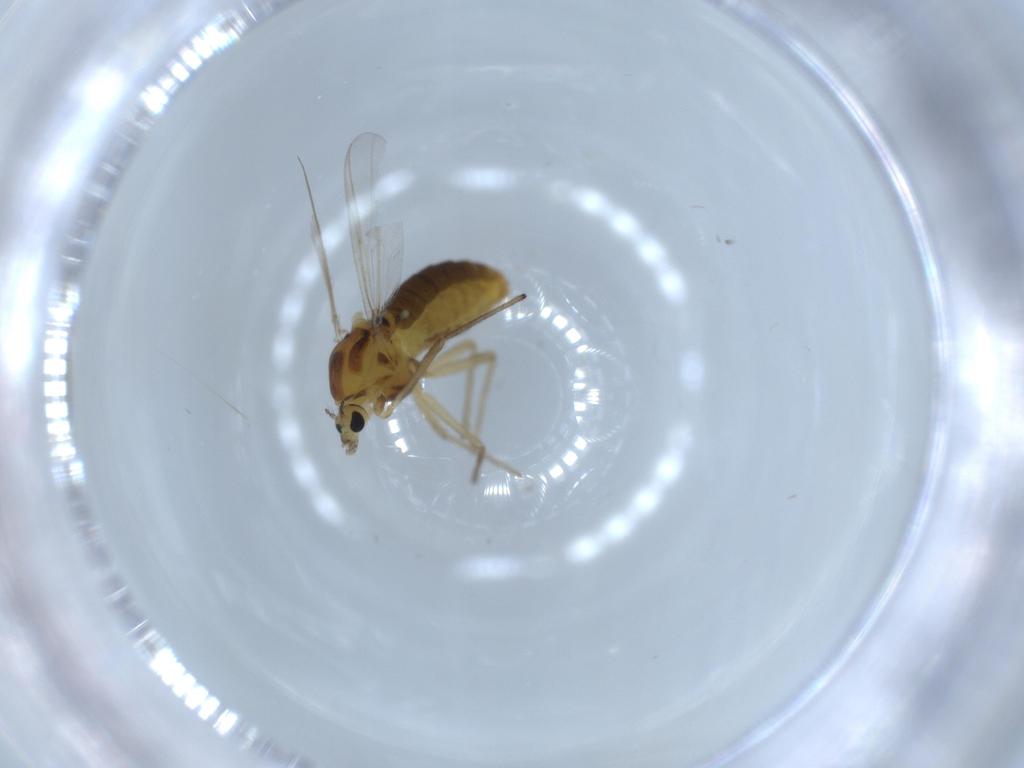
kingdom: Animalia
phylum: Arthropoda
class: Insecta
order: Diptera
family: Chironomidae
